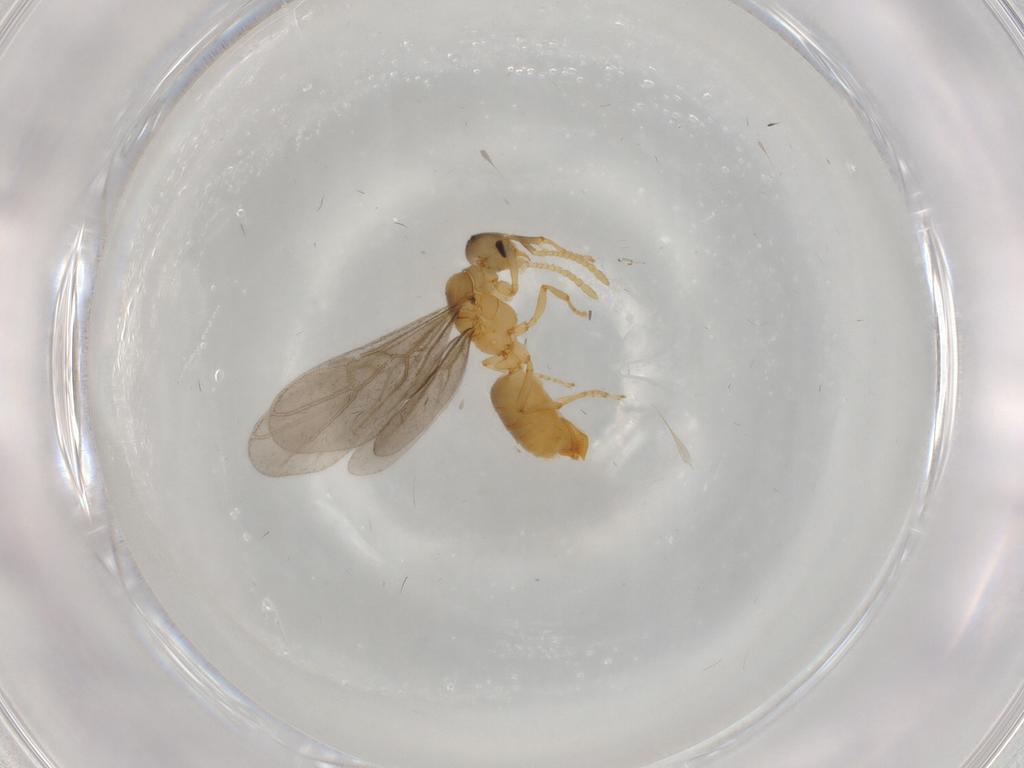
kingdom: Animalia
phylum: Arthropoda
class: Insecta
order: Hymenoptera
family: Formicidae
